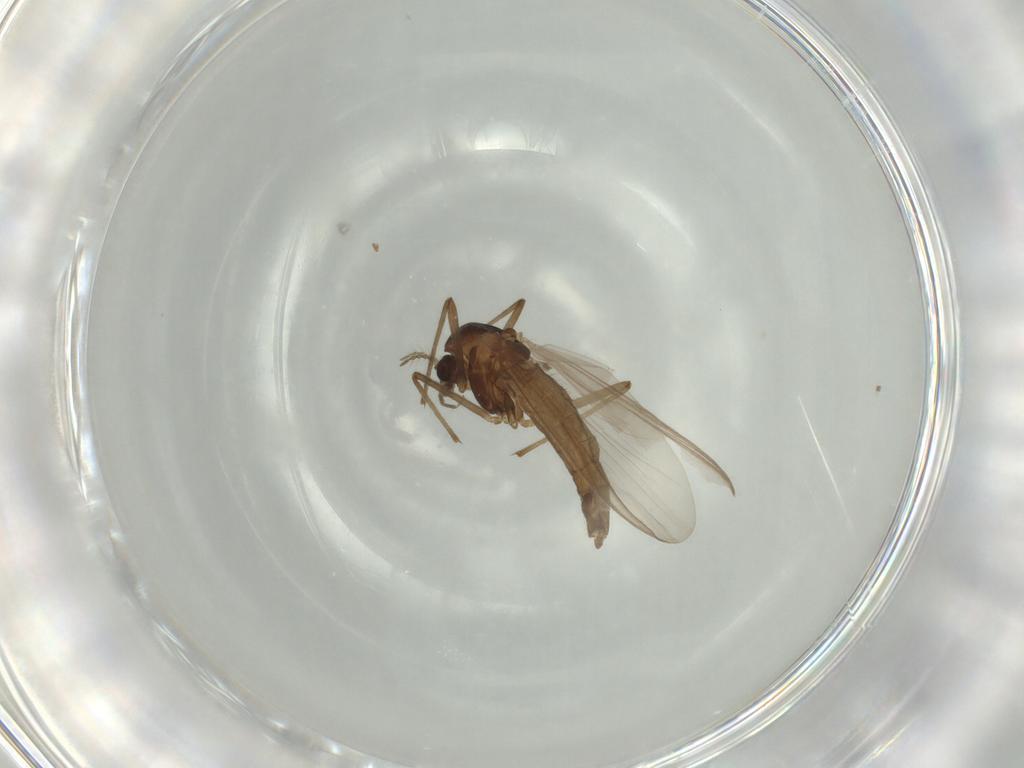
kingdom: Animalia
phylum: Arthropoda
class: Insecta
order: Diptera
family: Chironomidae
